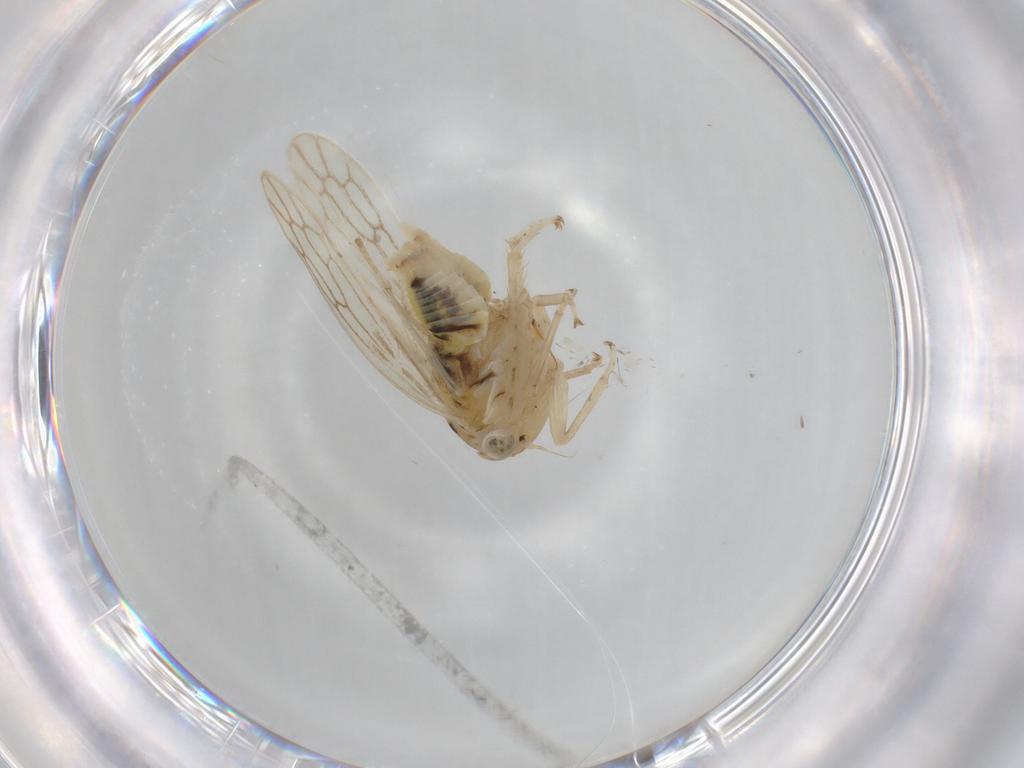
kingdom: Animalia
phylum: Arthropoda
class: Insecta
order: Hemiptera
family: Cicadellidae
